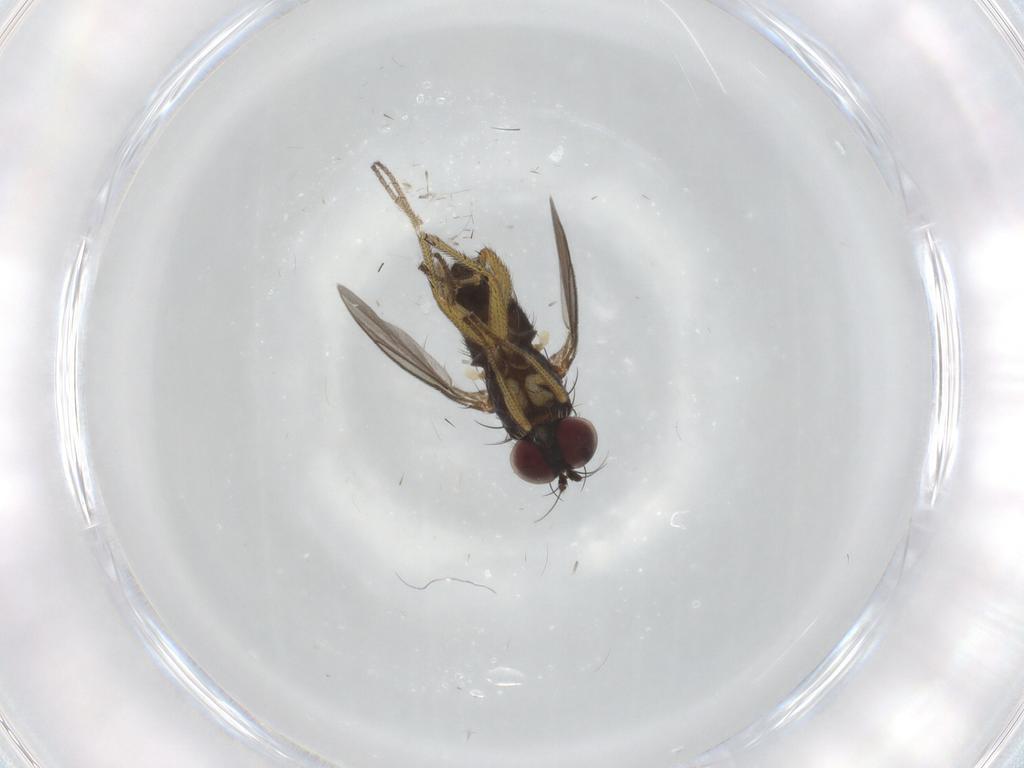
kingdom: Animalia
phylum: Arthropoda
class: Insecta
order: Diptera
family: Dolichopodidae
